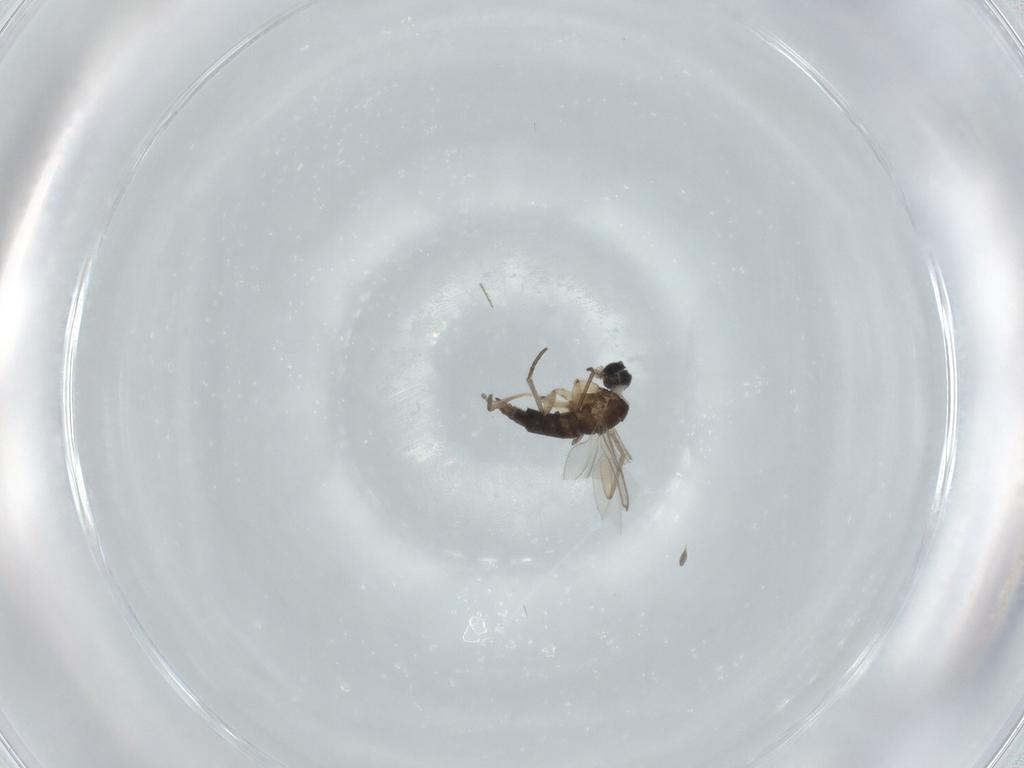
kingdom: Animalia
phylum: Arthropoda
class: Insecta
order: Diptera
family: Sciaridae
